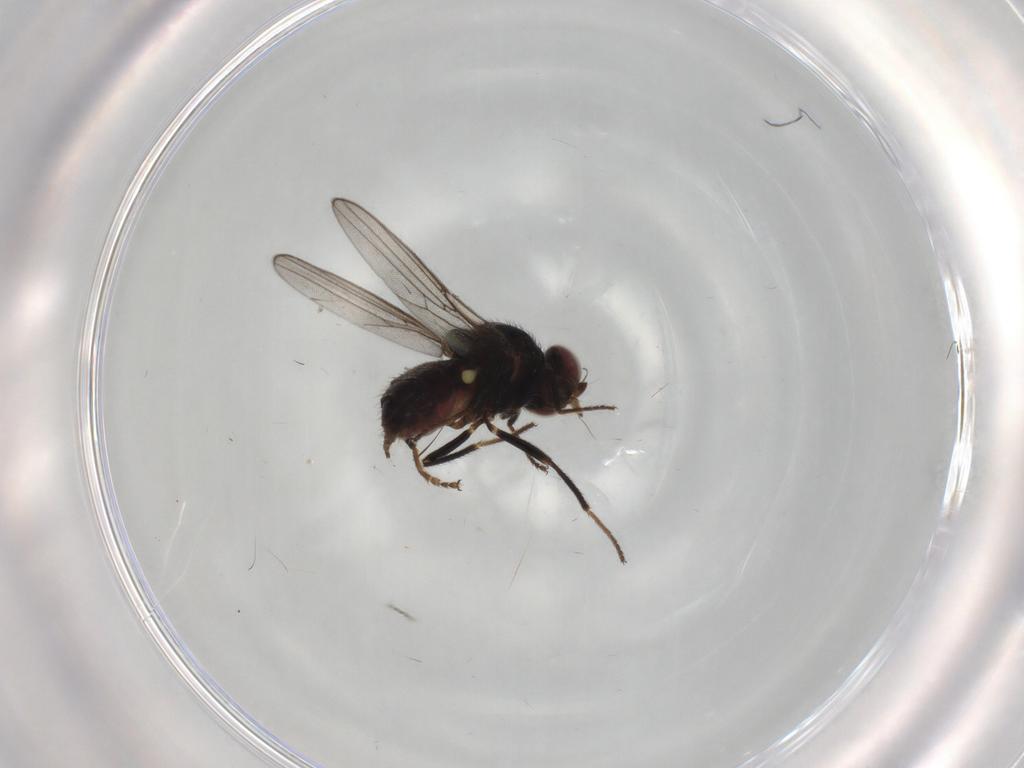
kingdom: Animalia
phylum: Arthropoda
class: Insecta
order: Diptera
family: Chloropidae
